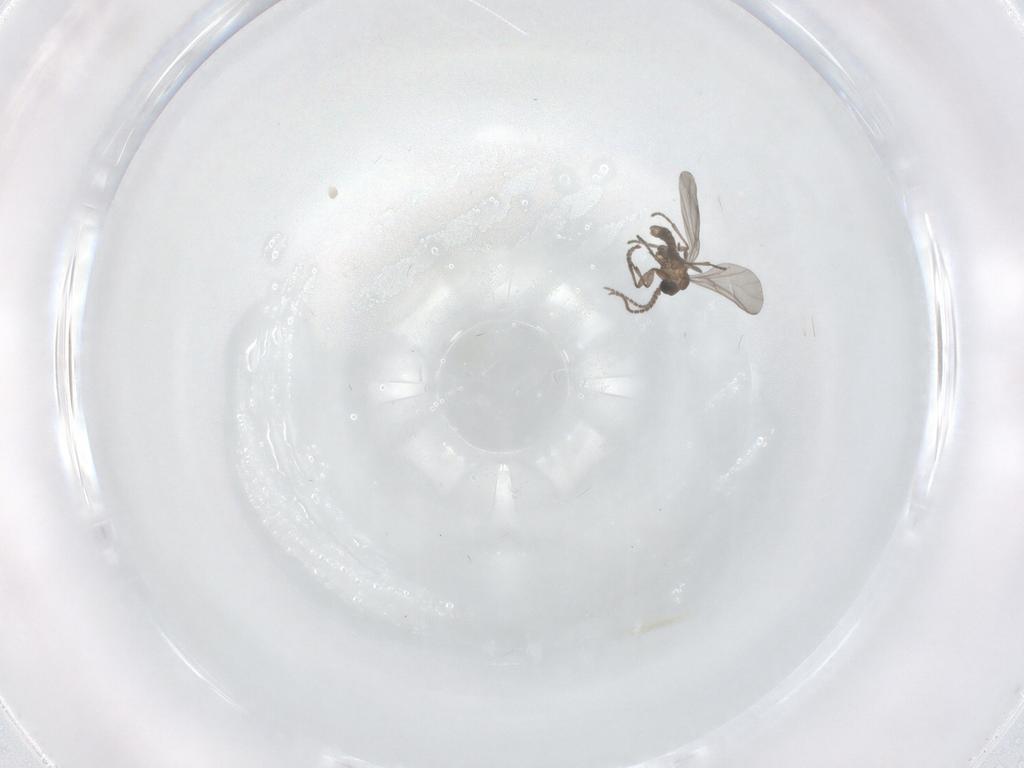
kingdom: Animalia
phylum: Arthropoda
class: Insecta
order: Diptera
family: Sciaridae
